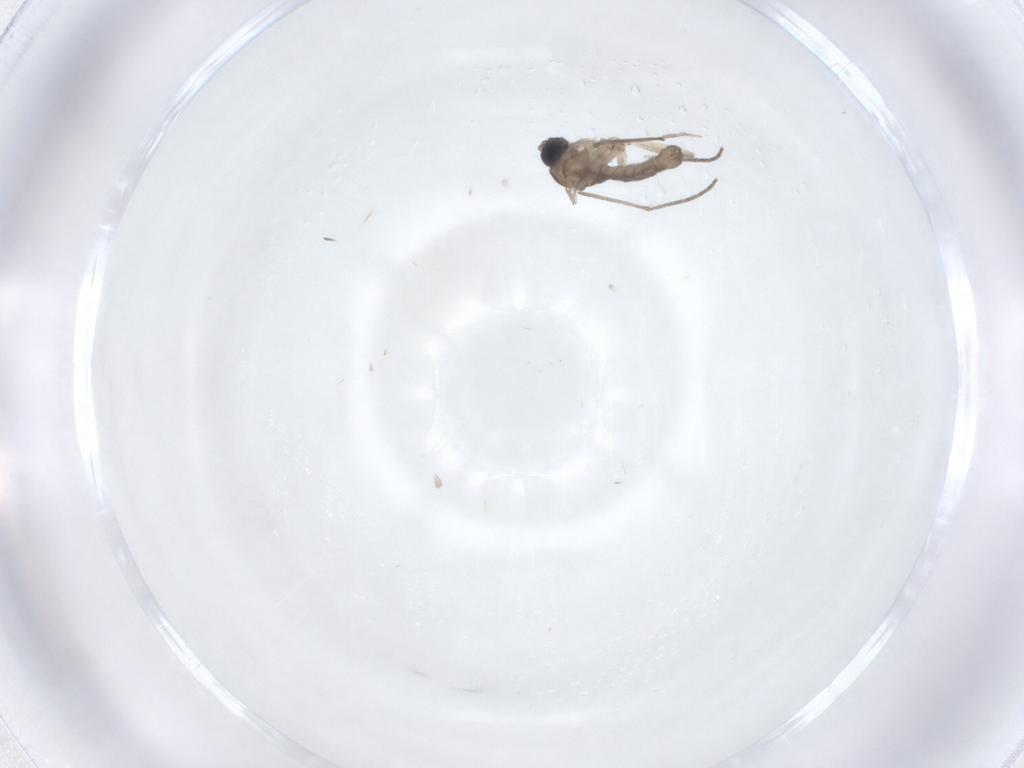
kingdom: Animalia
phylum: Arthropoda
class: Insecta
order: Diptera
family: Sciaridae
